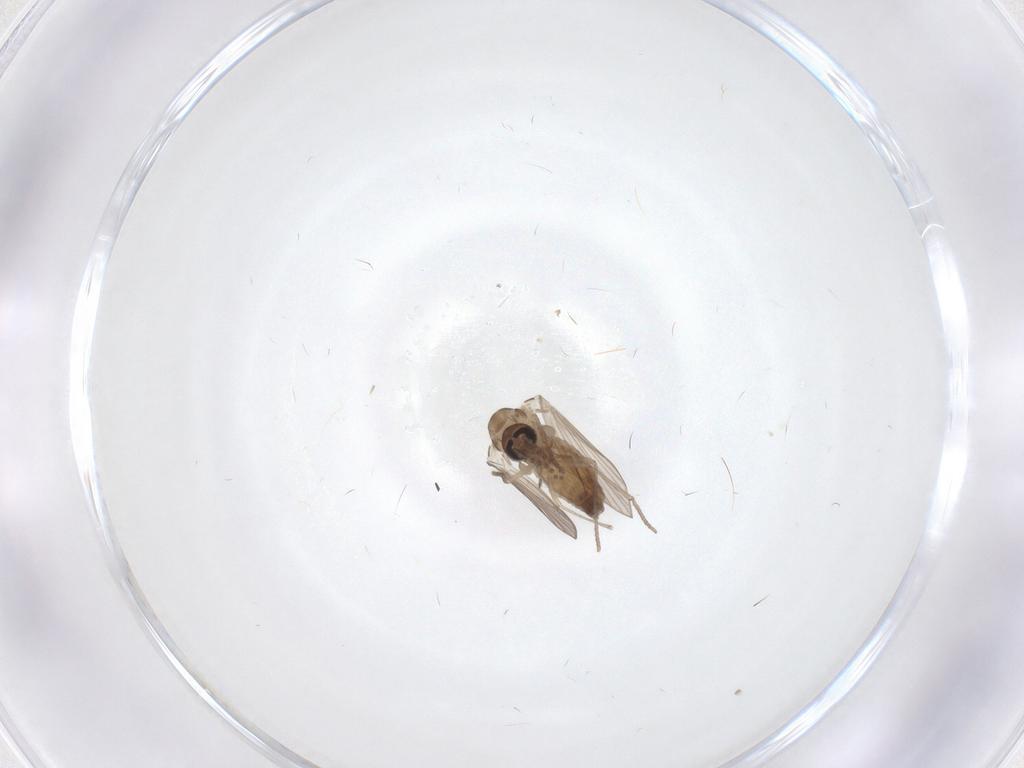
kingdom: Animalia
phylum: Arthropoda
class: Insecta
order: Diptera
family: Psychodidae
